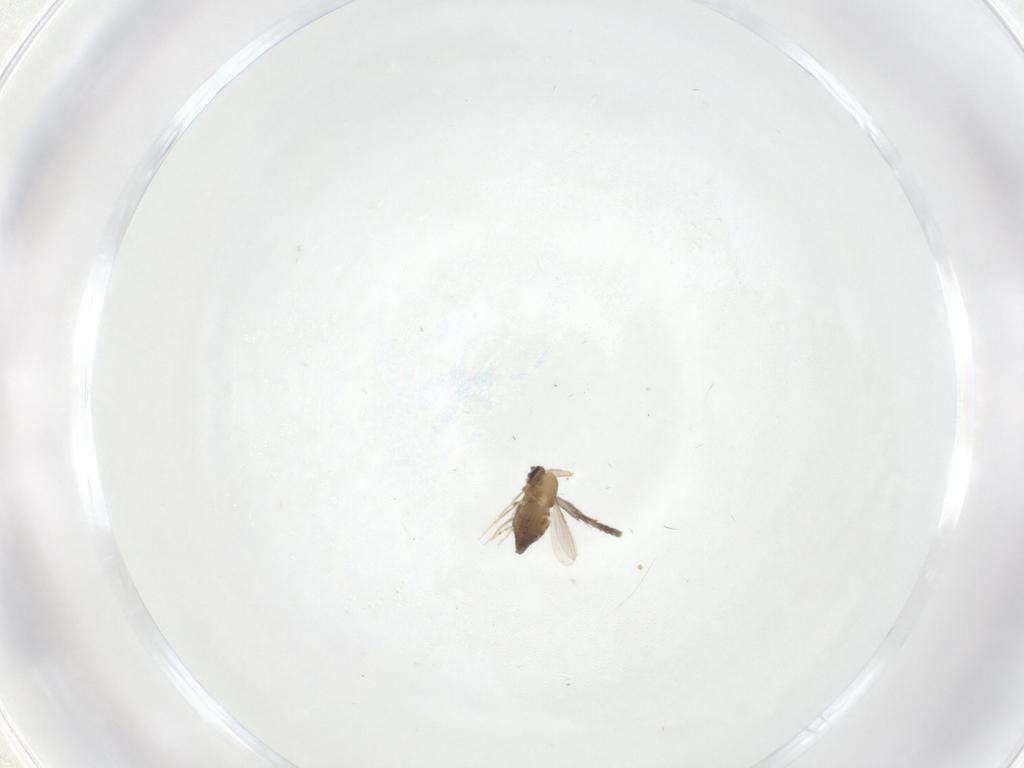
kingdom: Animalia
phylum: Arthropoda
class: Insecta
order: Diptera
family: Ceratopogonidae
